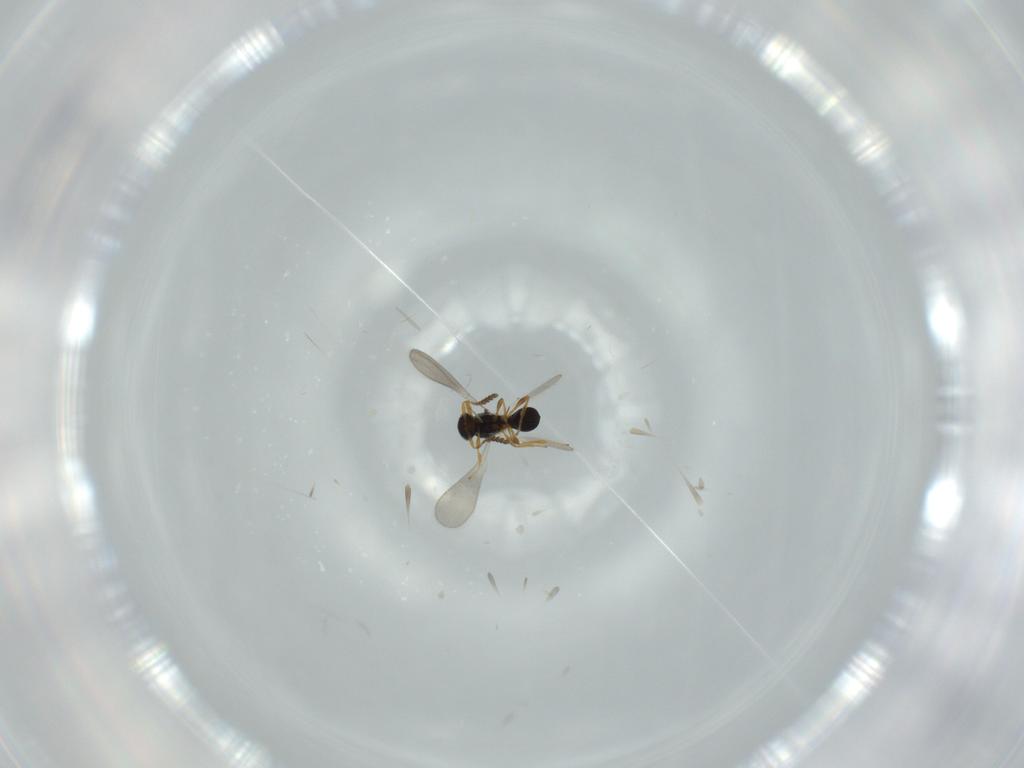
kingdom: Animalia
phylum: Arthropoda
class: Insecta
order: Hymenoptera
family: Platygastridae
